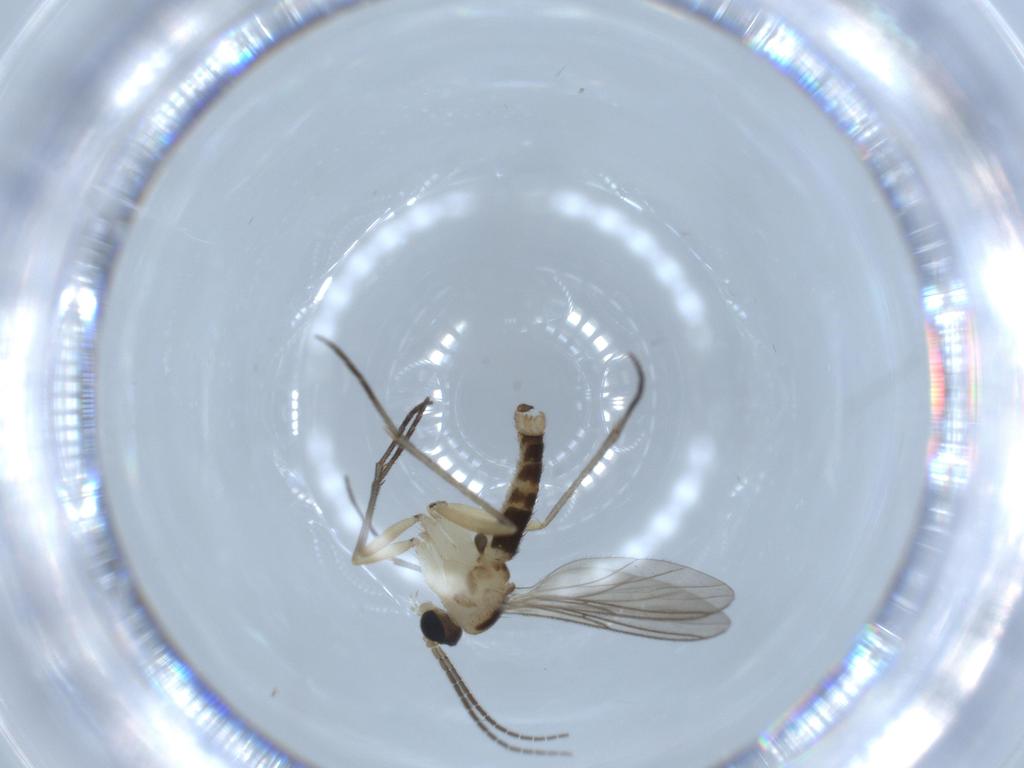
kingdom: Animalia
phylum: Arthropoda
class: Insecta
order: Diptera
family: Sciaridae
